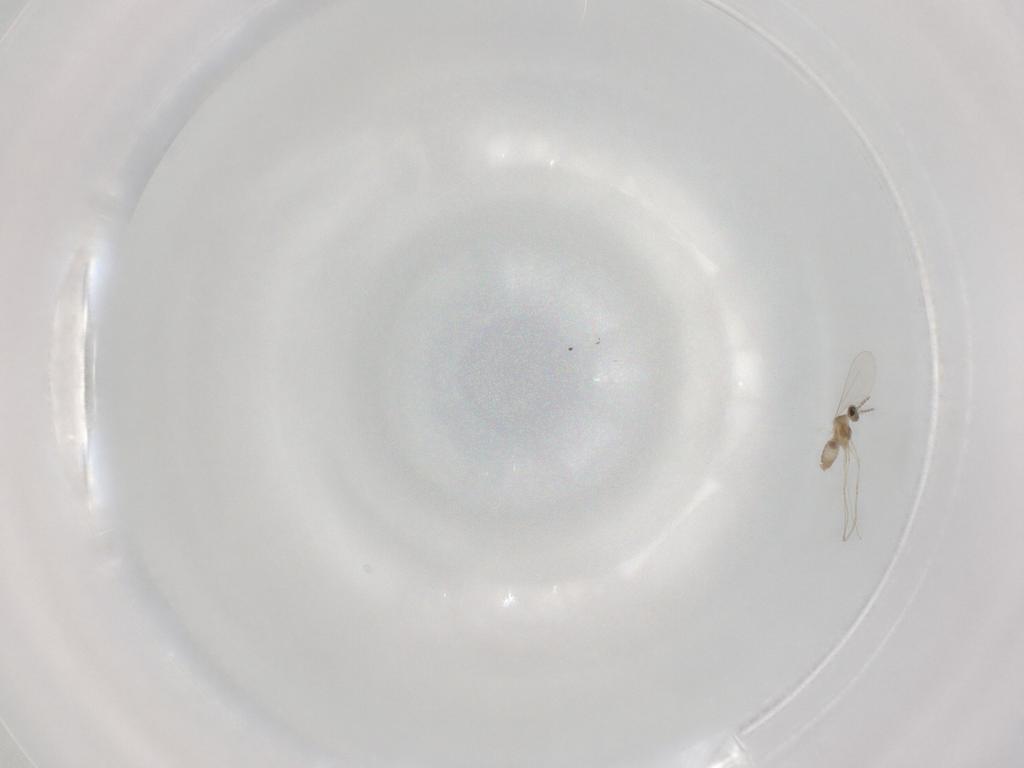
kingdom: Animalia
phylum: Arthropoda
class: Insecta
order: Diptera
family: Cecidomyiidae
